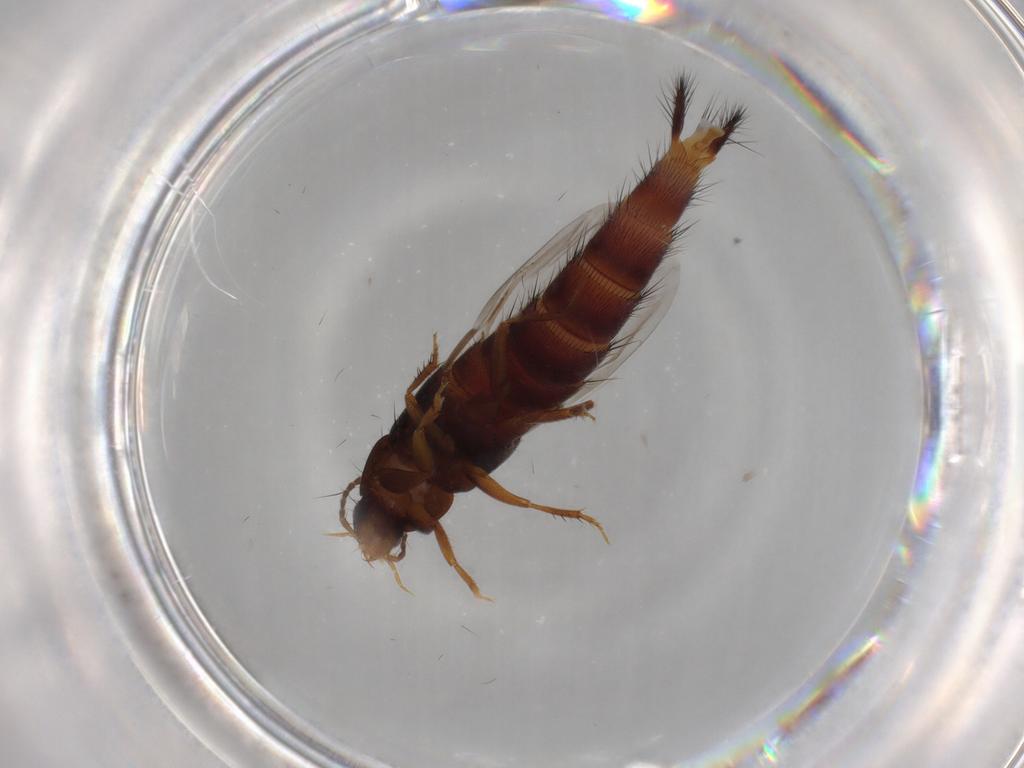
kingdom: Animalia
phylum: Arthropoda
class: Insecta
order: Coleoptera
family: Staphylinidae
